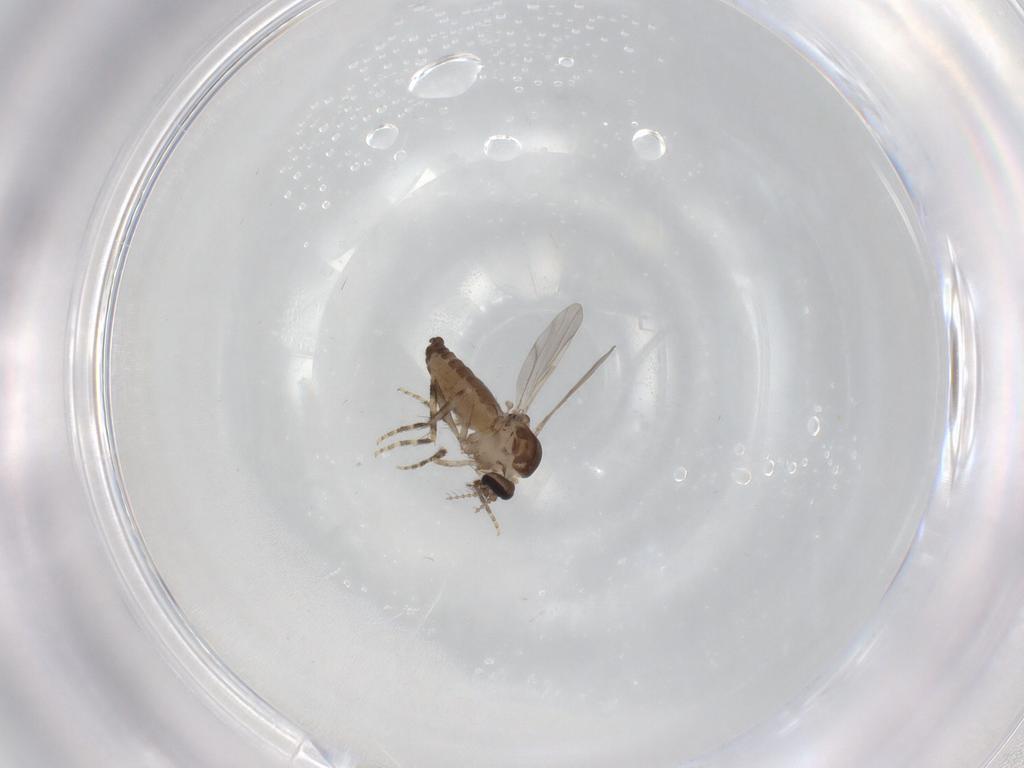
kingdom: Animalia
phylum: Arthropoda
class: Insecta
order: Diptera
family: Ceratopogonidae
